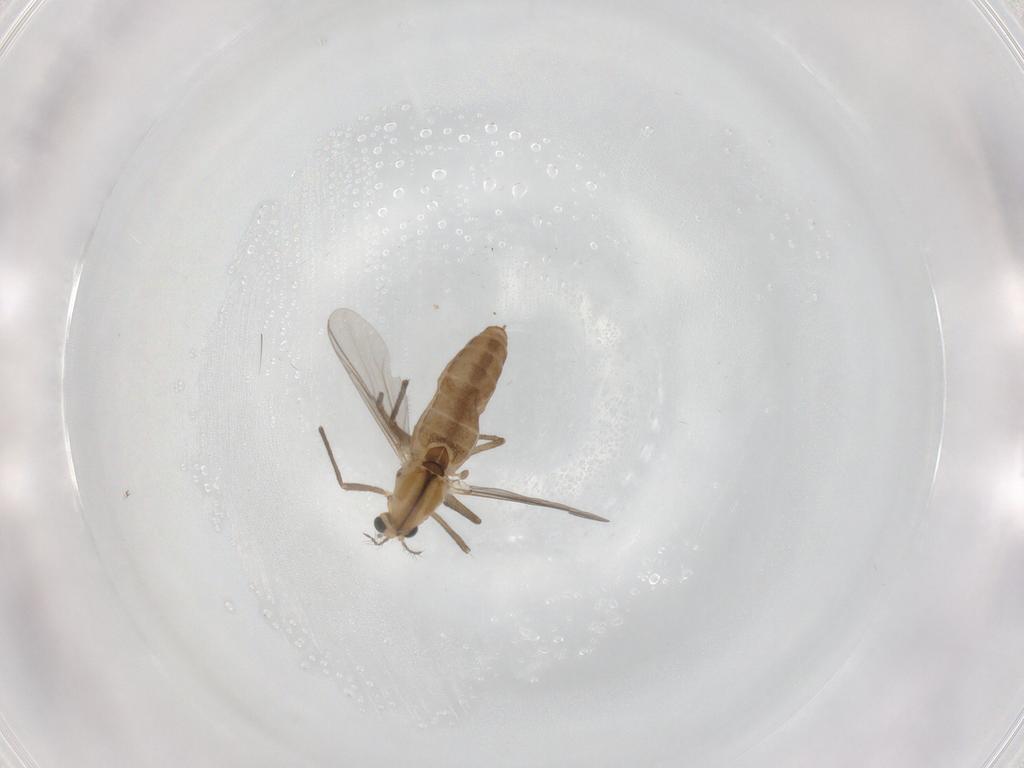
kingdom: Animalia
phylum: Arthropoda
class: Insecta
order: Diptera
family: Chironomidae
